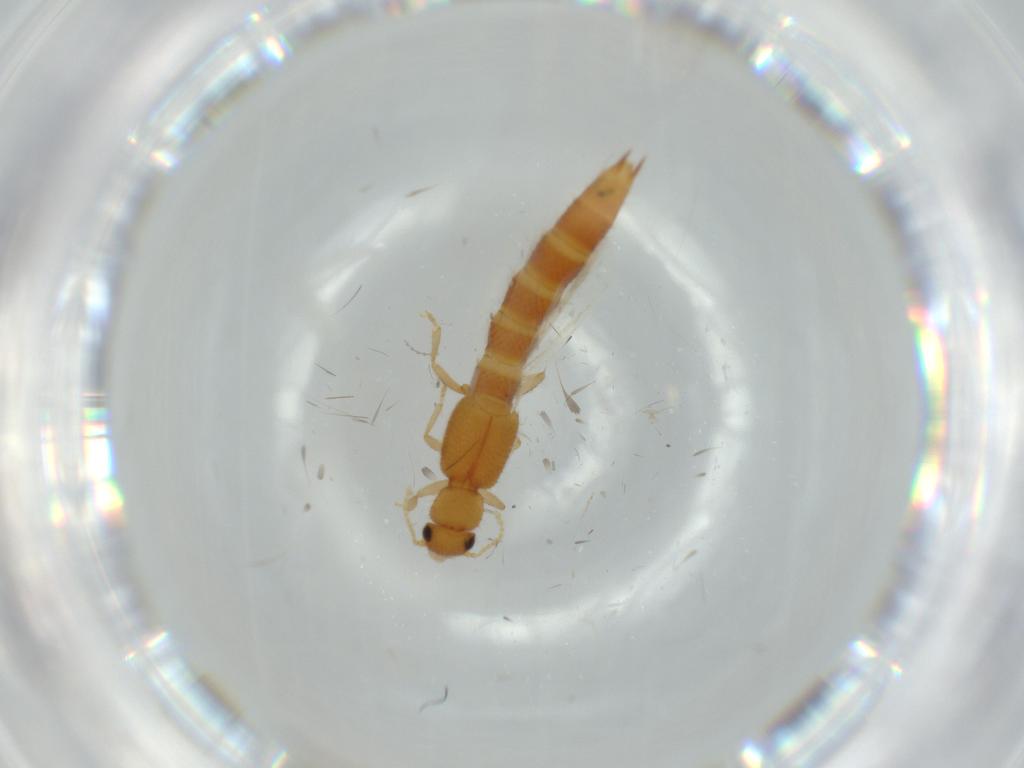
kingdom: Animalia
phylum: Arthropoda
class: Insecta
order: Coleoptera
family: Staphylinidae
